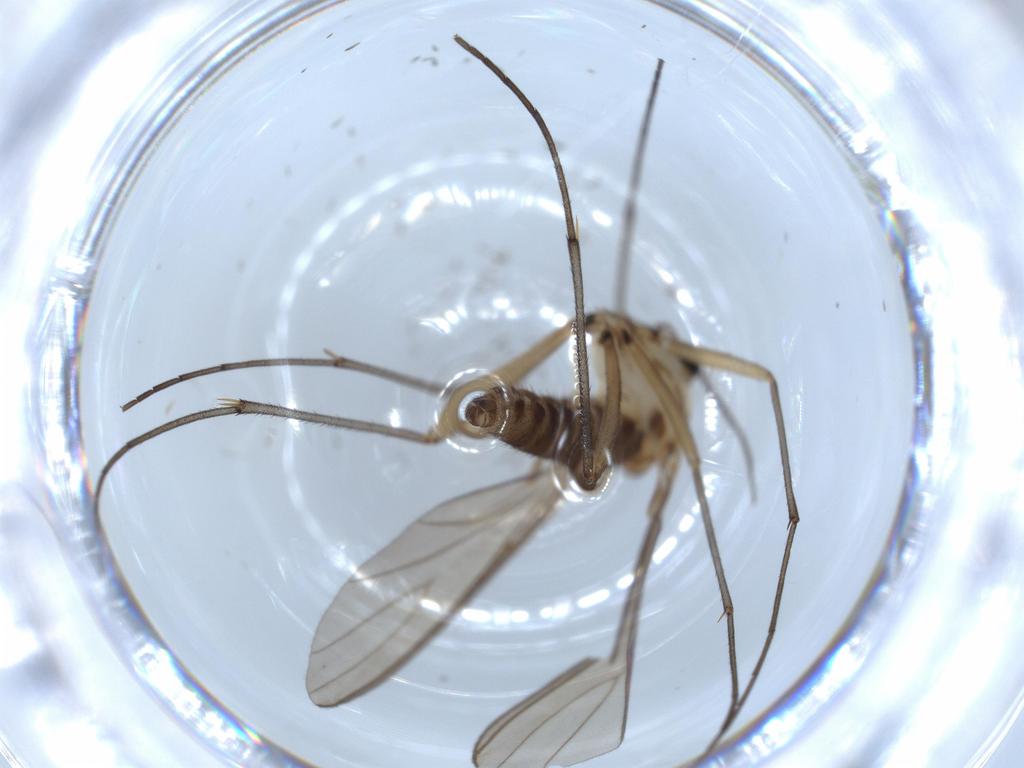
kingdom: Animalia
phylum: Arthropoda
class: Insecta
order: Diptera
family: Sciaridae
